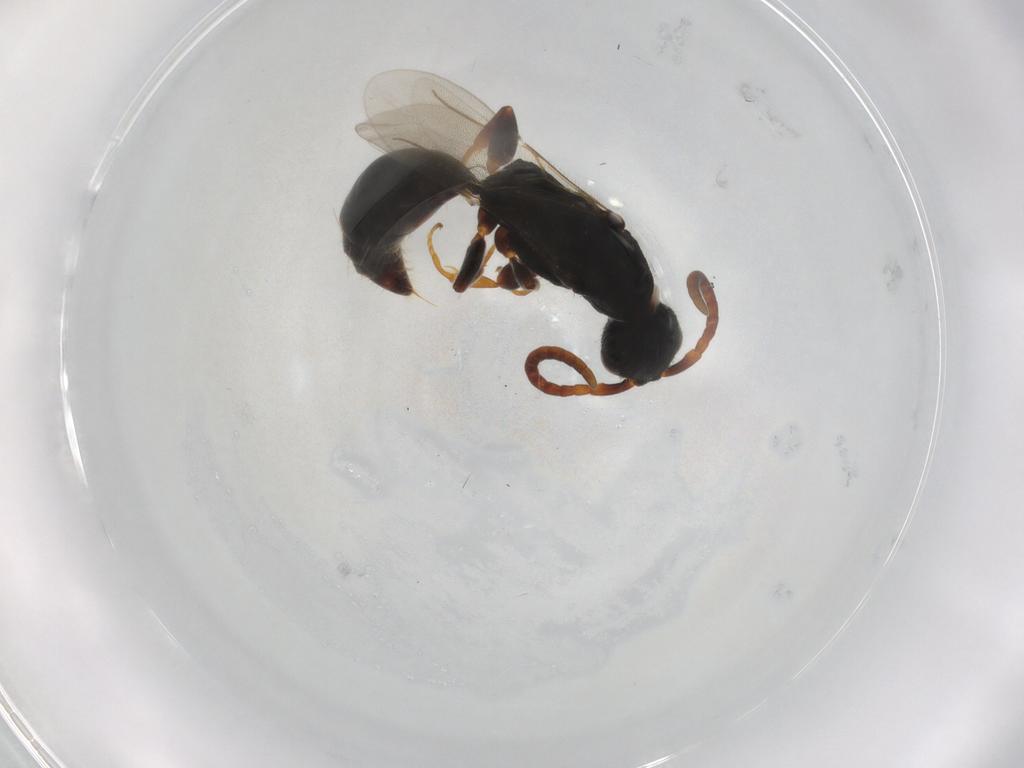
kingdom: Animalia
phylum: Arthropoda
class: Insecta
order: Hymenoptera
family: Bethylidae
